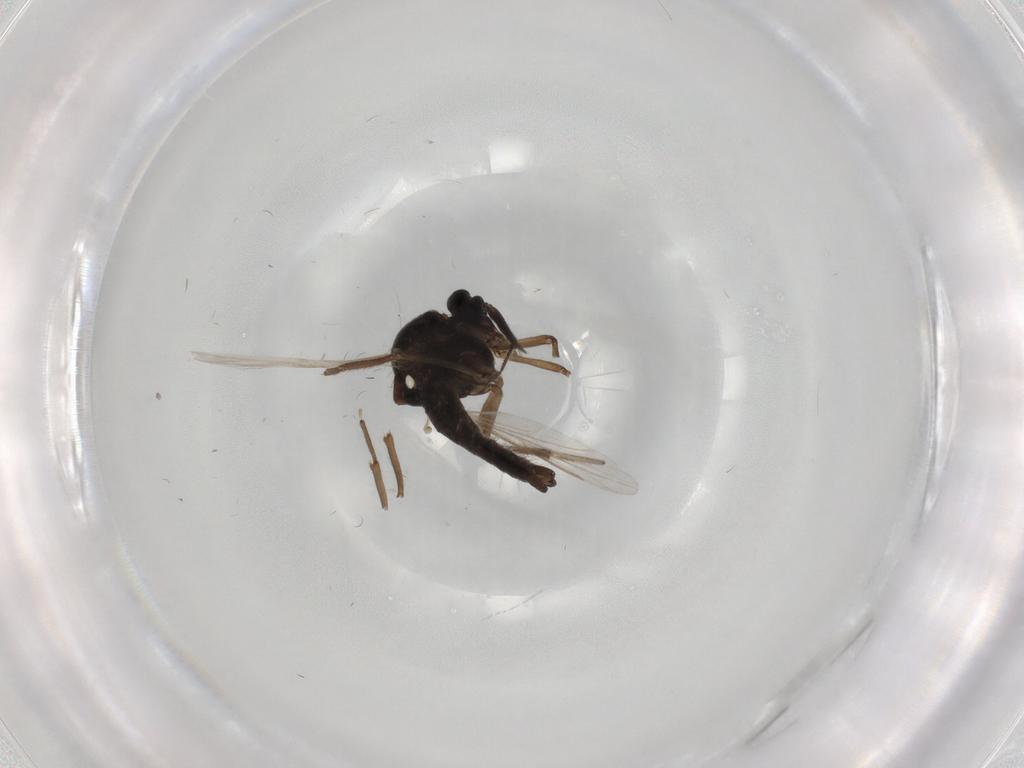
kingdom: Animalia
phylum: Arthropoda
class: Insecta
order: Diptera
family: Ceratopogonidae
